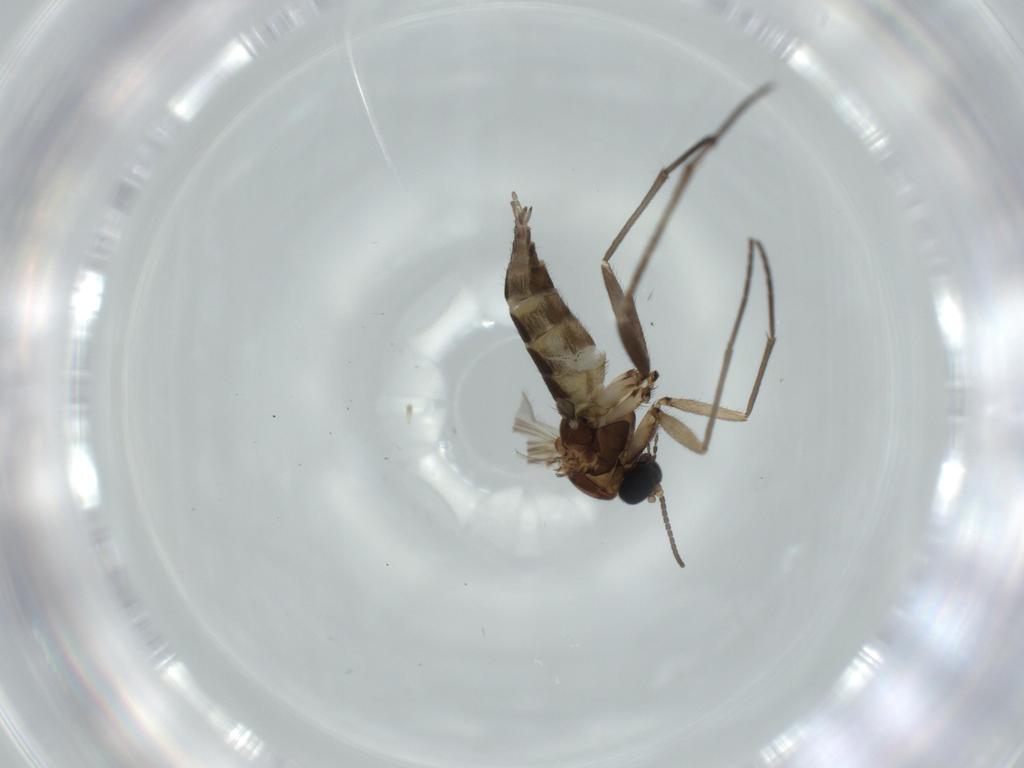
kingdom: Animalia
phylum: Arthropoda
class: Insecta
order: Diptera
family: Sciaridae
